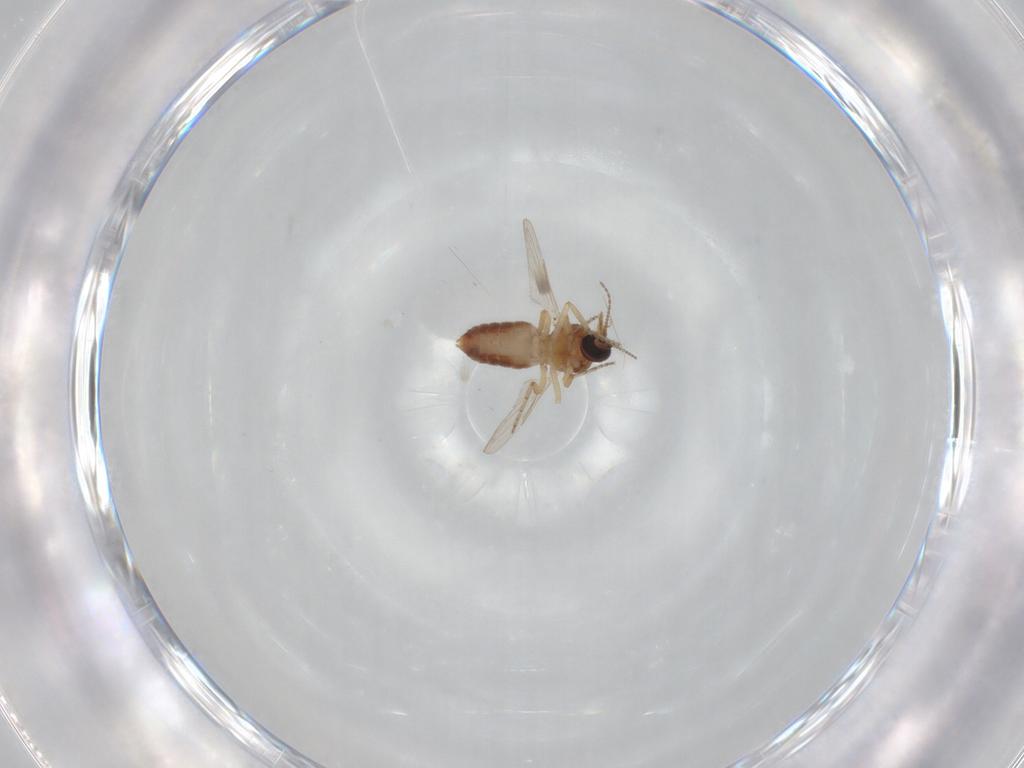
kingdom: Animalia
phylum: Arthropoda
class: Insecta
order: Diptera
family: Ceratopogonidae
